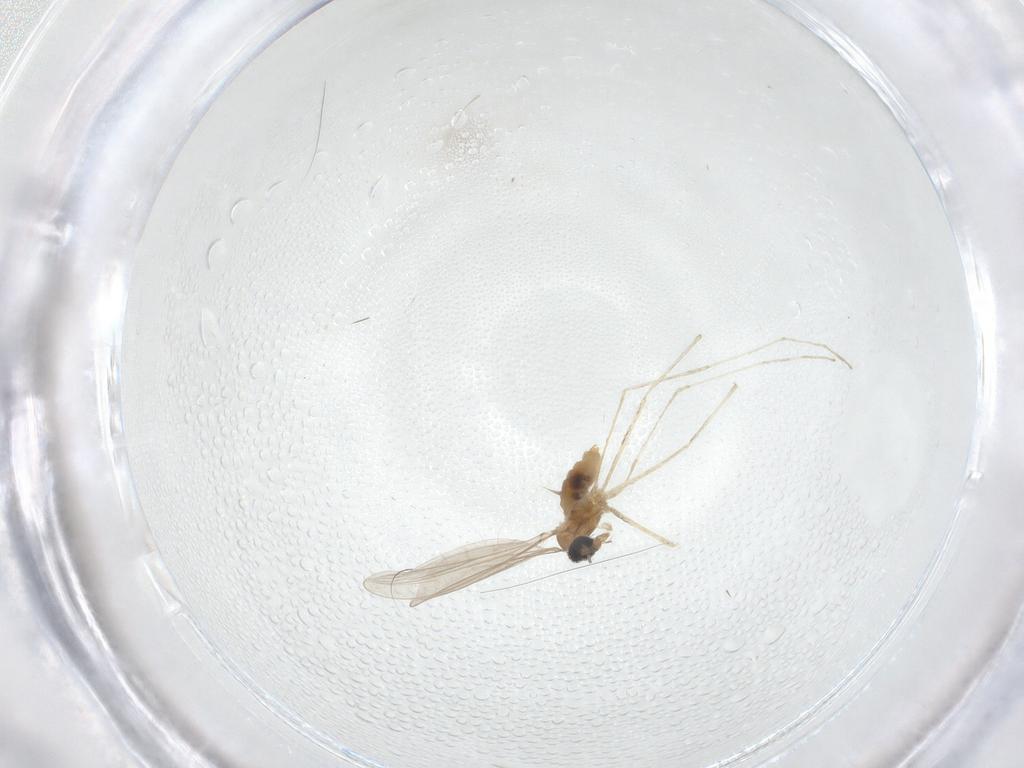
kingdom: Animalia
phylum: Arthropoda
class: Insecta
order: Diptera
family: Cecidomyiidae
